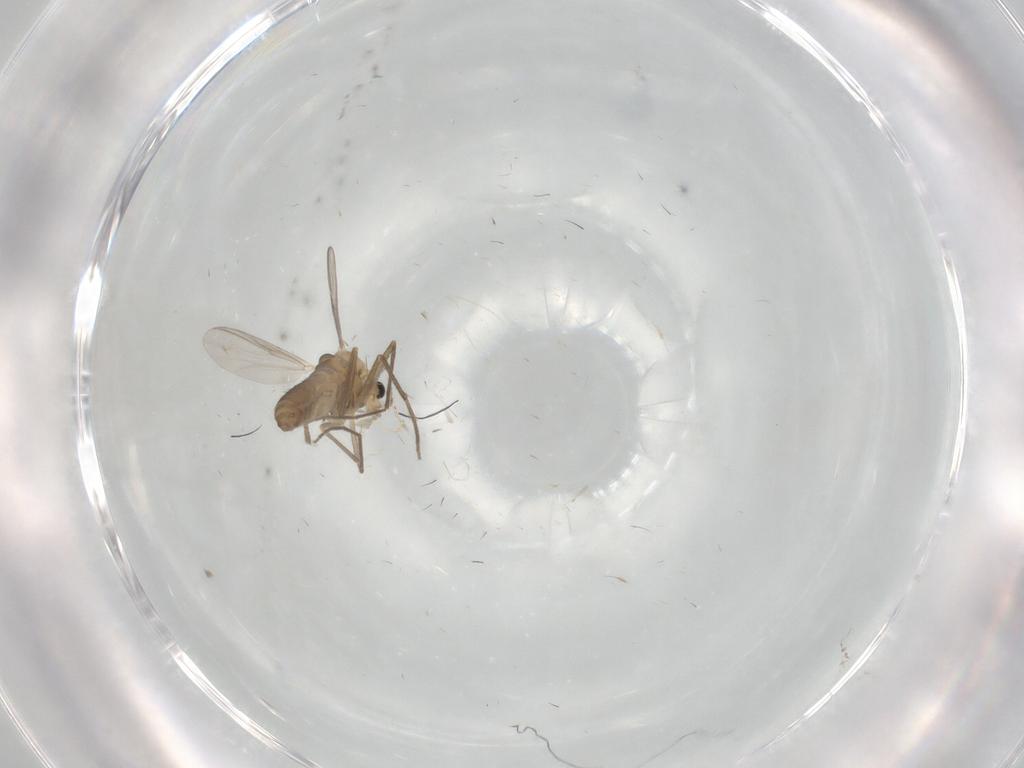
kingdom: Animalia
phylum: Arthropoda
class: Insecta
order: Diptera
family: Chironomidae
